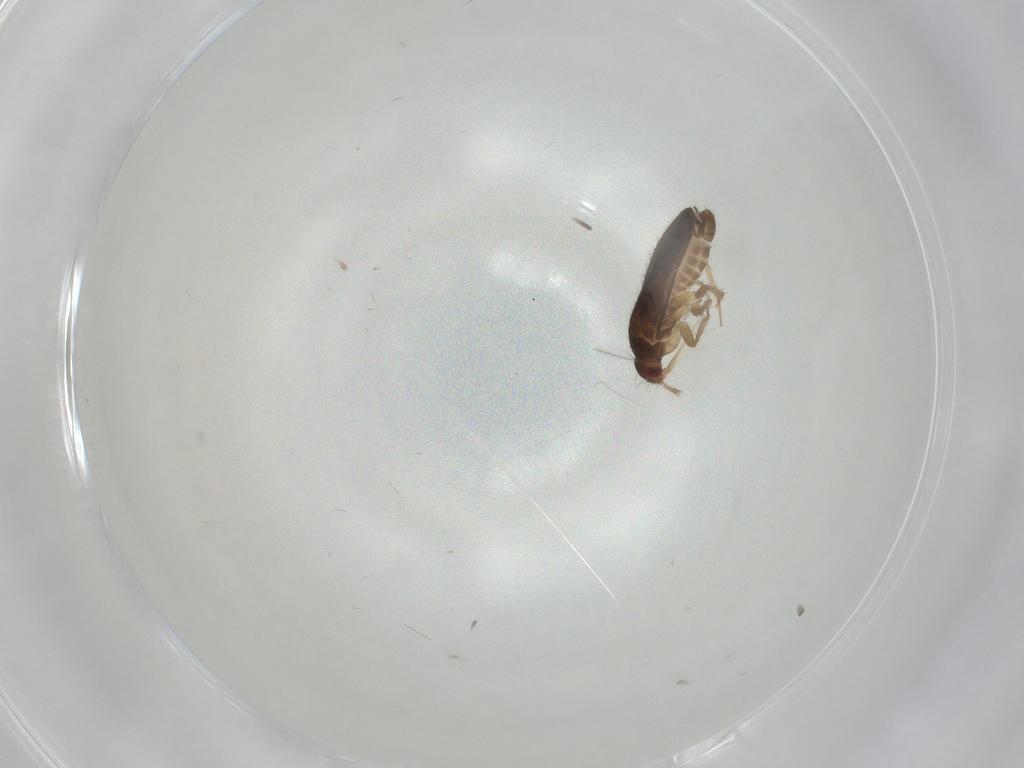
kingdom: Animalia
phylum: Arthropoda
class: Insecta
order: Hemiptera
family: Ceratocombidae
